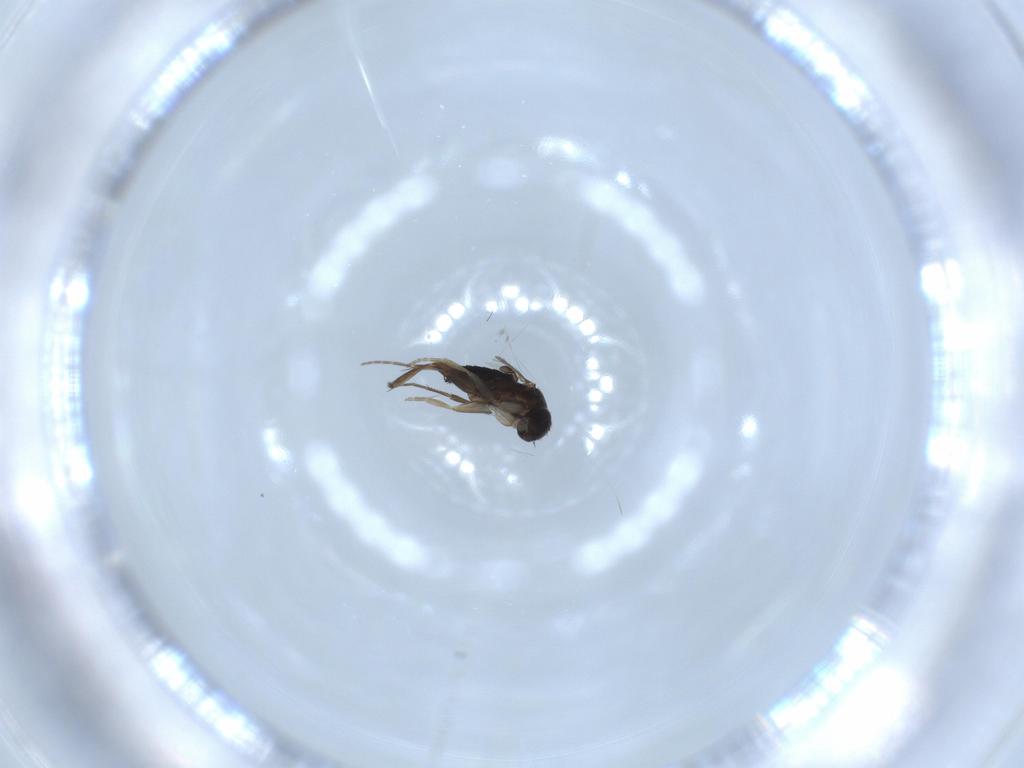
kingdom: Animalia
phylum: Arthropoda
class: Insecta
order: Diptera
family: Phoridae
